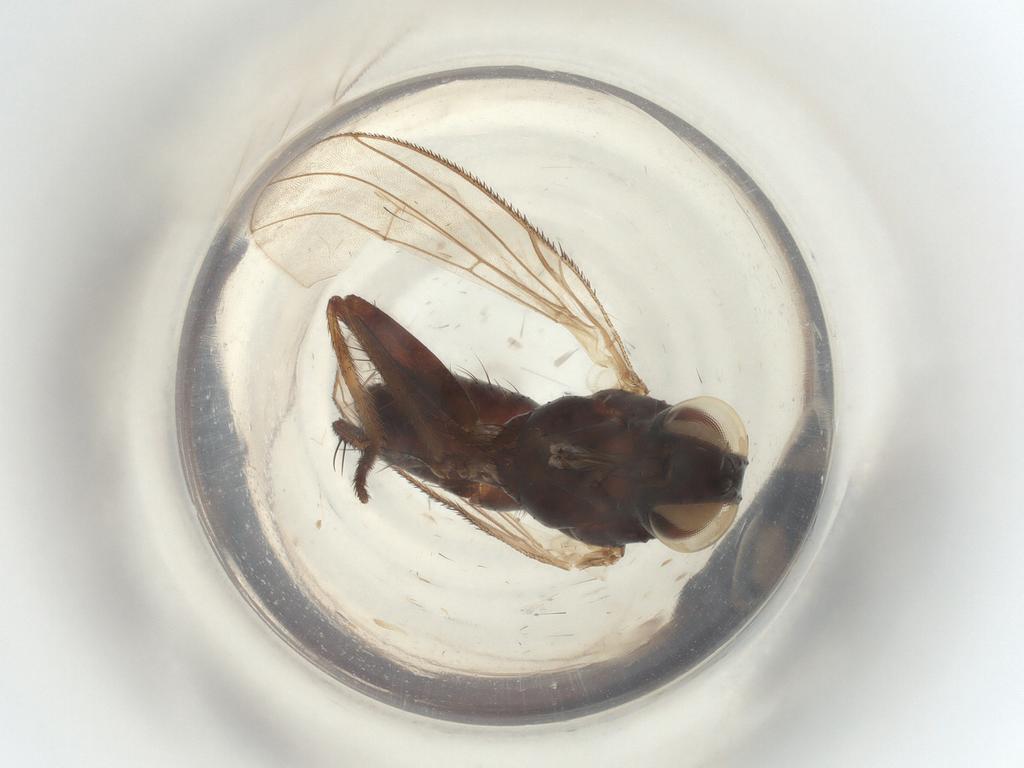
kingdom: Animalia
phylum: Arthropoda
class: Insecta
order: Diptera
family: Muscidae
